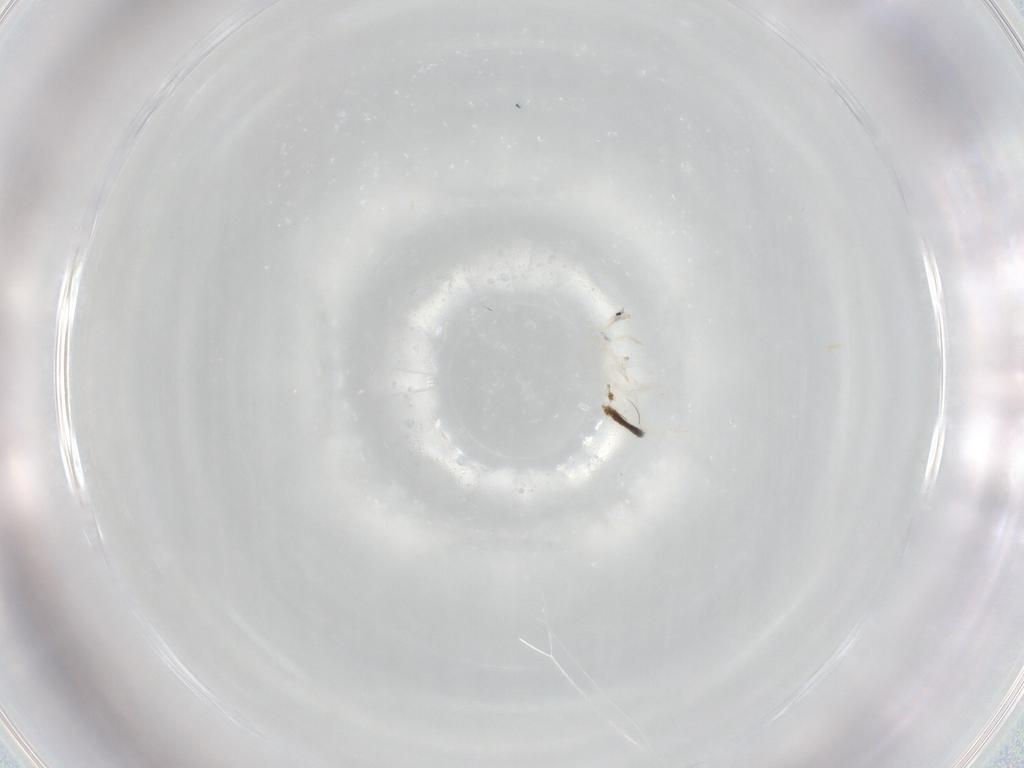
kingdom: Animalia
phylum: Arthropoda
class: Collembola
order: Entomobryomorpha
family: Entomobryidae
